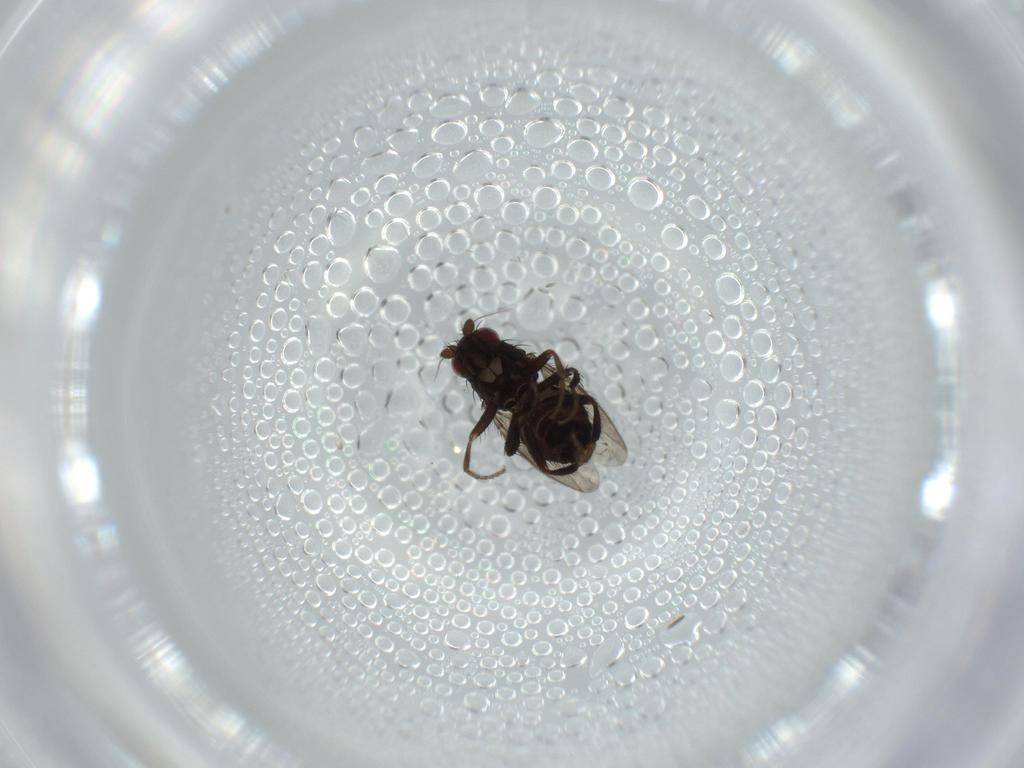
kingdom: Animalia
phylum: Arthropoda
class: Insecta
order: Diptera
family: Sphaeroceridae
